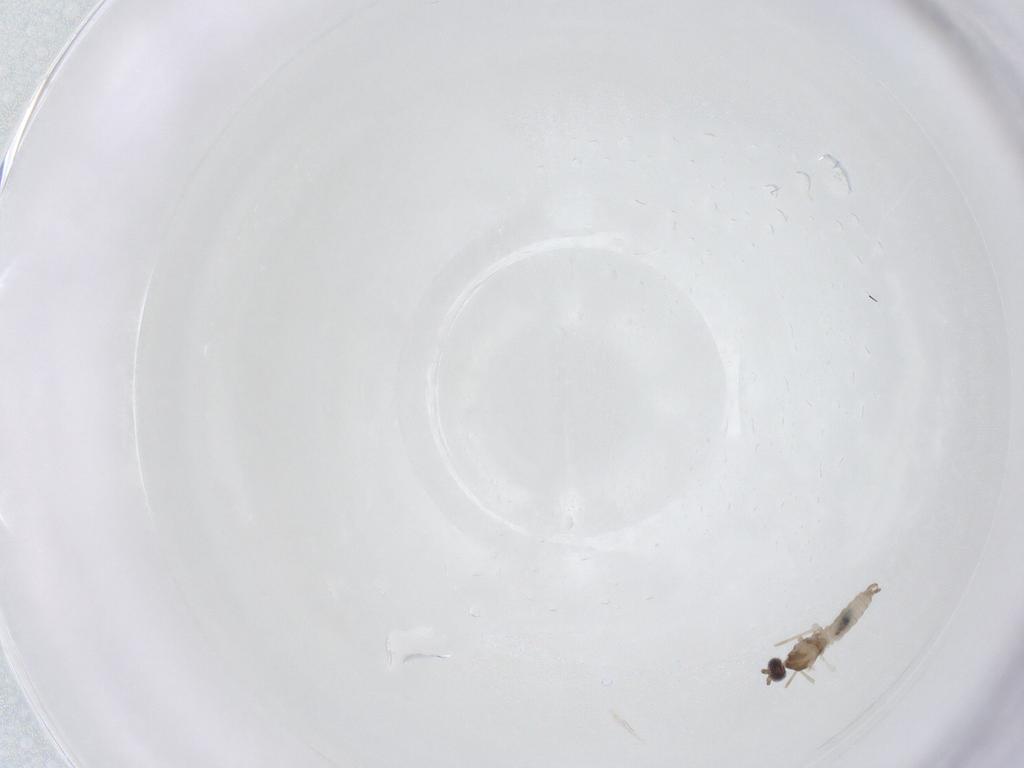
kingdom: Animalia
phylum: Arthropoda
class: Insecta
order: Diptera
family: Cecidomyiidae
